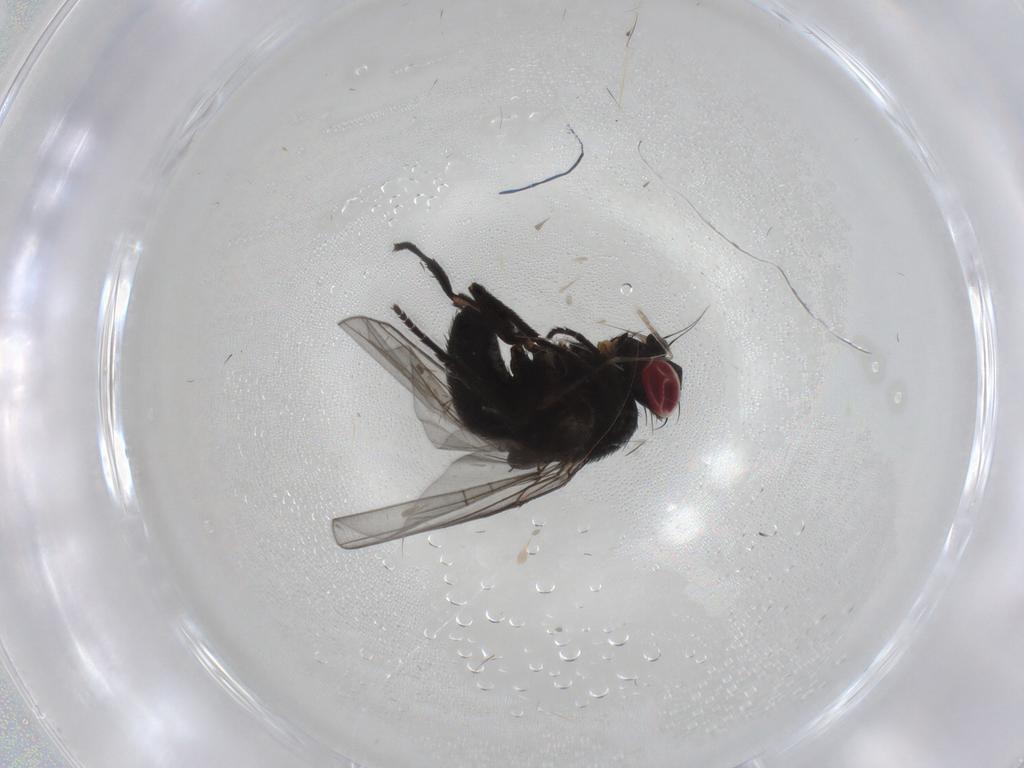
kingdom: Animalia
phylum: Arthropoda
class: Insecta
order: Diptera
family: Agromyzidae
